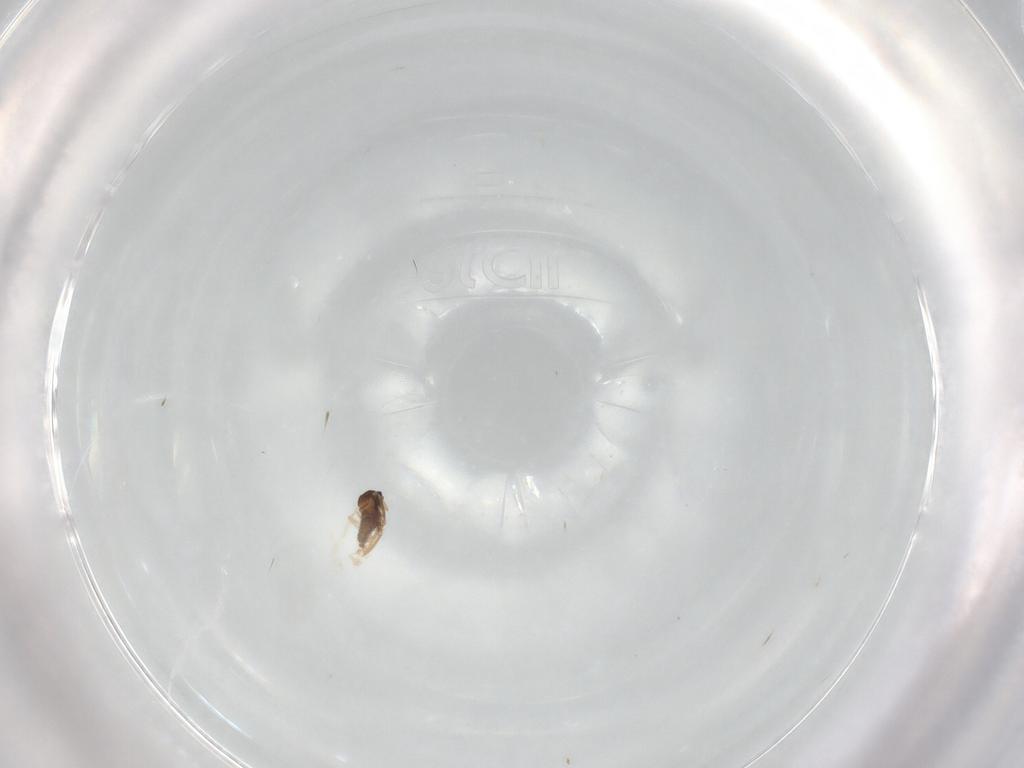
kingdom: Animalia
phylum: Arthropoda
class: Insecta
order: Diptera
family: Cecidomyiidae
